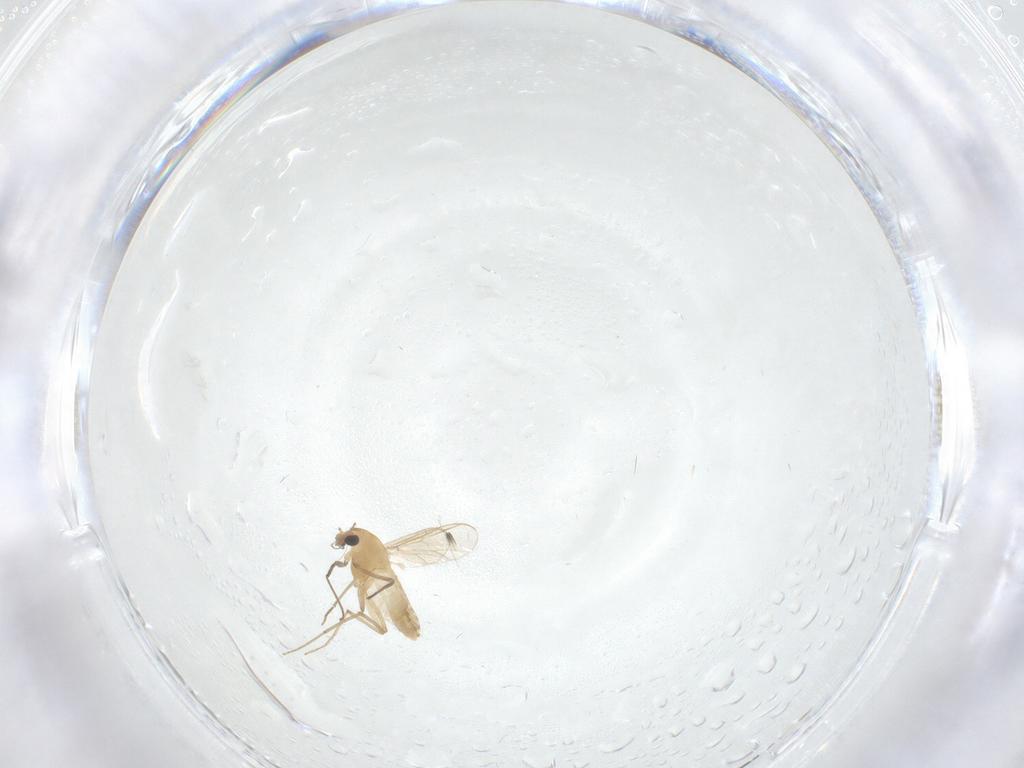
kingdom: Animalia
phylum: Arthropoda
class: Insecta
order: Diptera
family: Chironomidae
